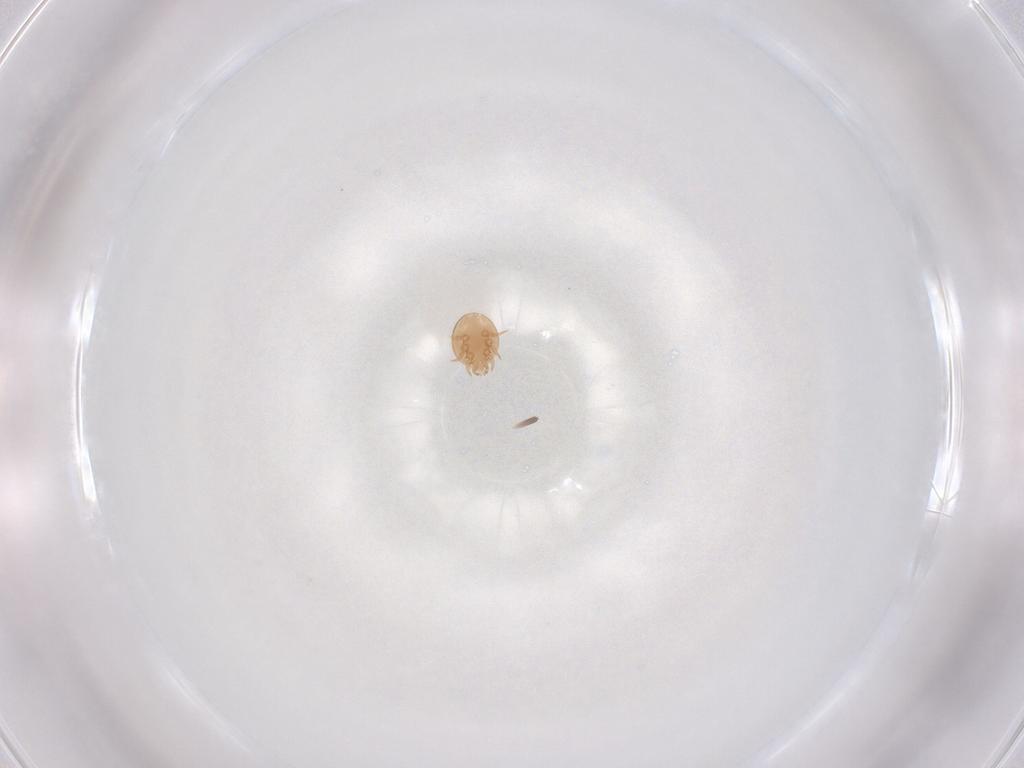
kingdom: Animalia
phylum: Arthropoda
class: Arachnida
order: Mesostigmata
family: Trematuridae
